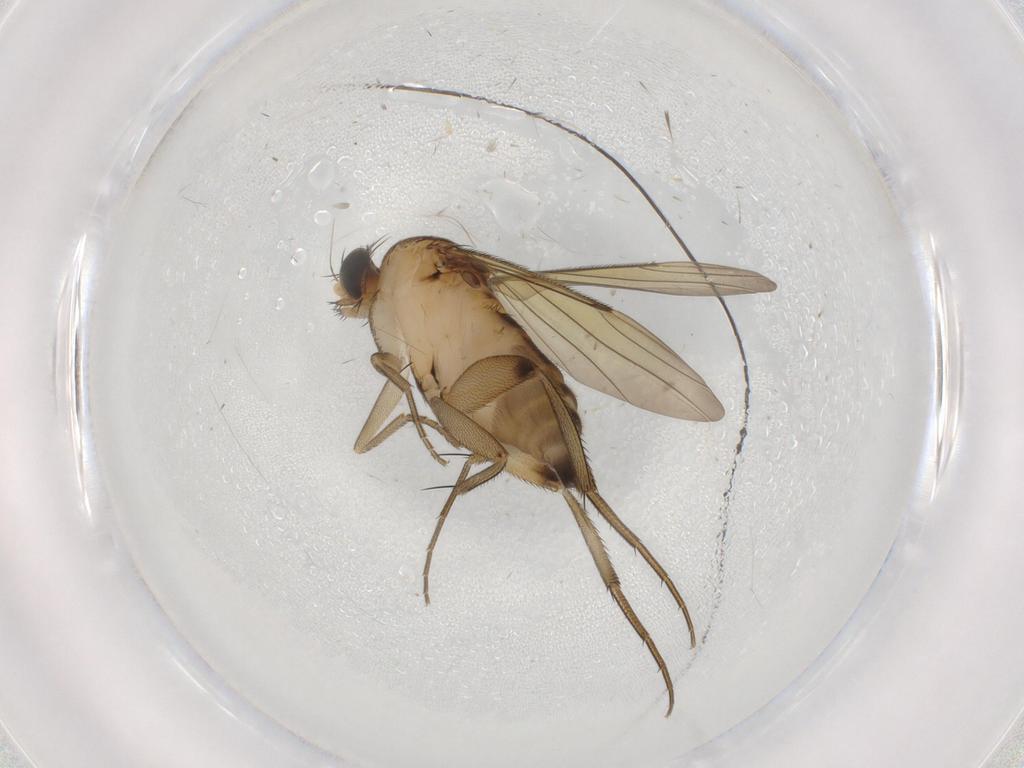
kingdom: Animalia
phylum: Arthropoda
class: Insecta
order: Diptera
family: Phoridae
